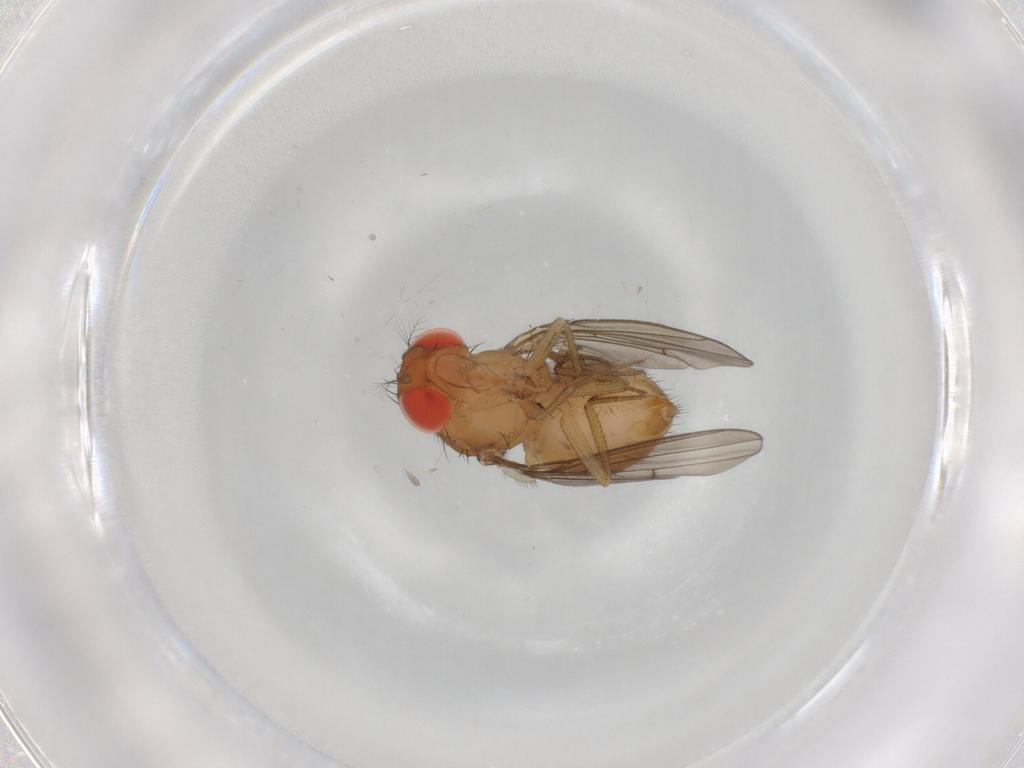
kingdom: Animalia
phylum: Arthropoda
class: Insecta
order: Diptera
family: Drosophilidae
